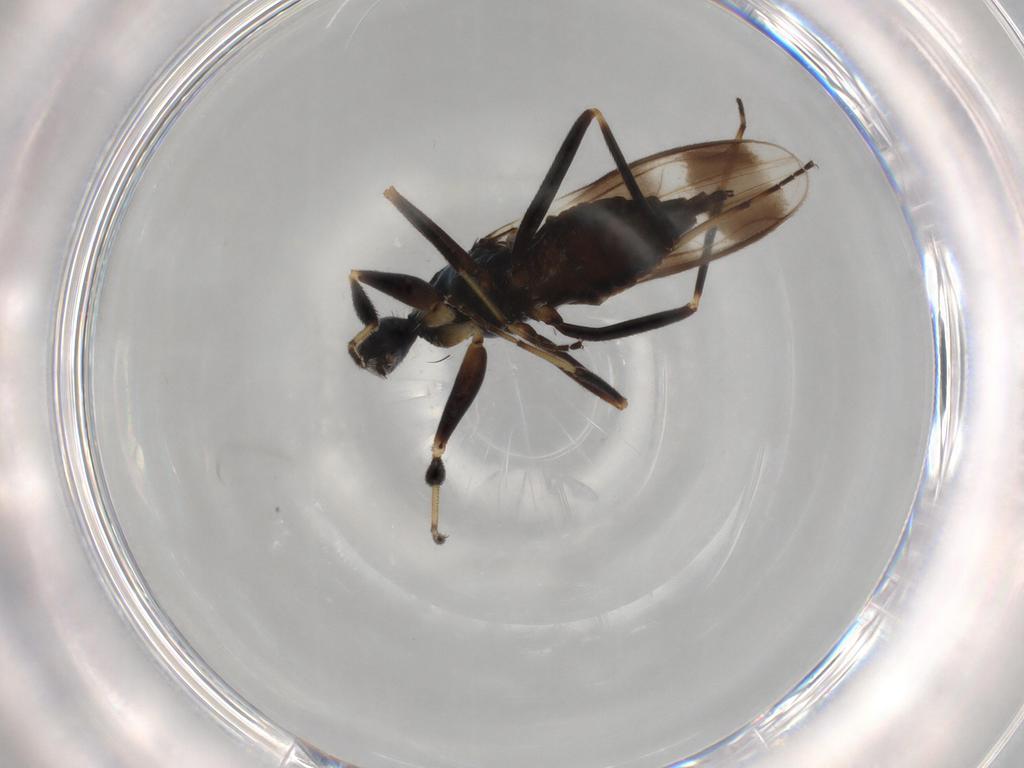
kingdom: Animalia
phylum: Arthropoda
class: Insecta
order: Diptera
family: Hybotidae
